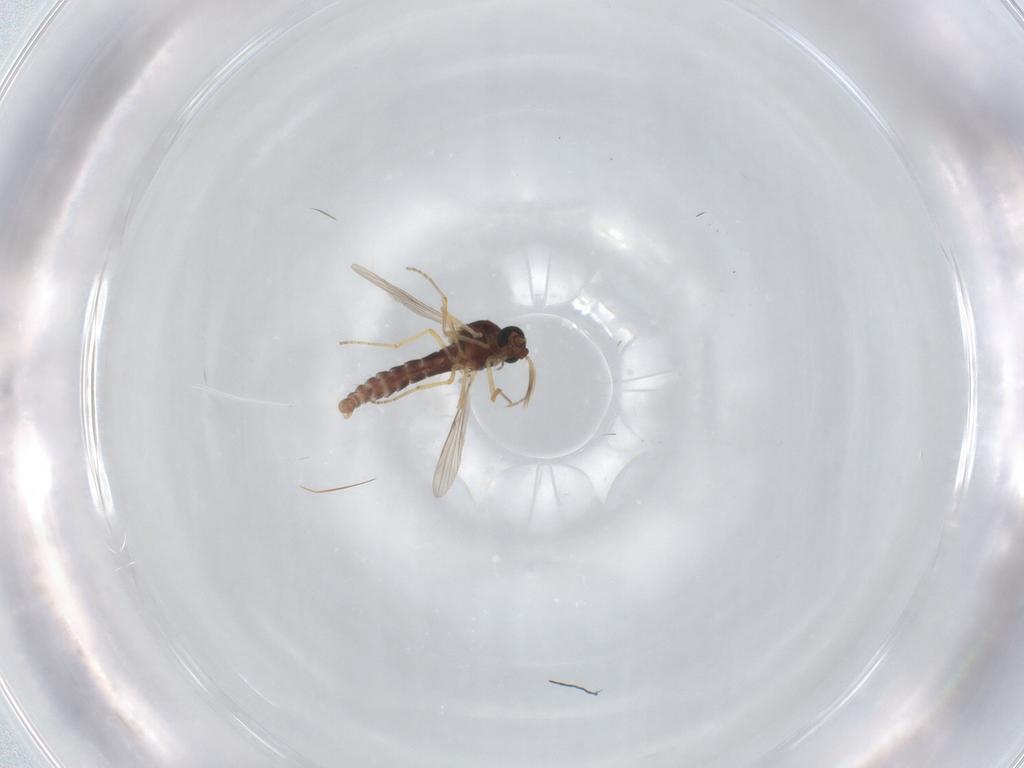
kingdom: Animalia
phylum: Arthropoda
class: Insecta
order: Diptera
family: Ceratopogonidae
